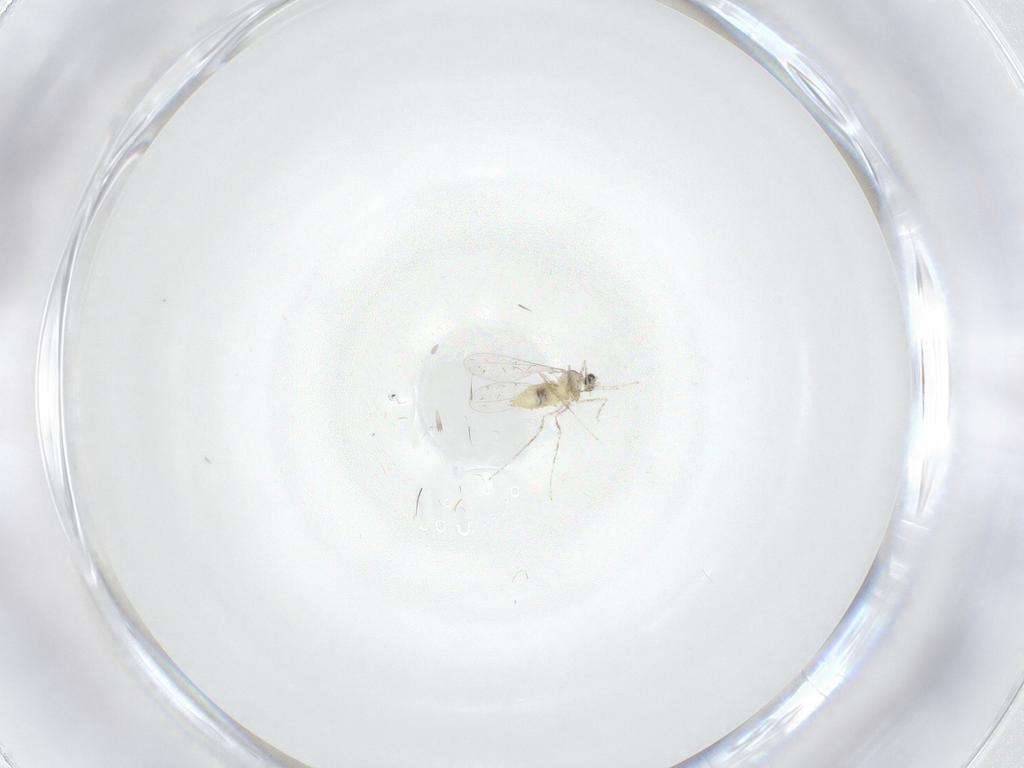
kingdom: Animalia
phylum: Arthropoda
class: Insecta
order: Diptera
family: Cecidomyiidae
